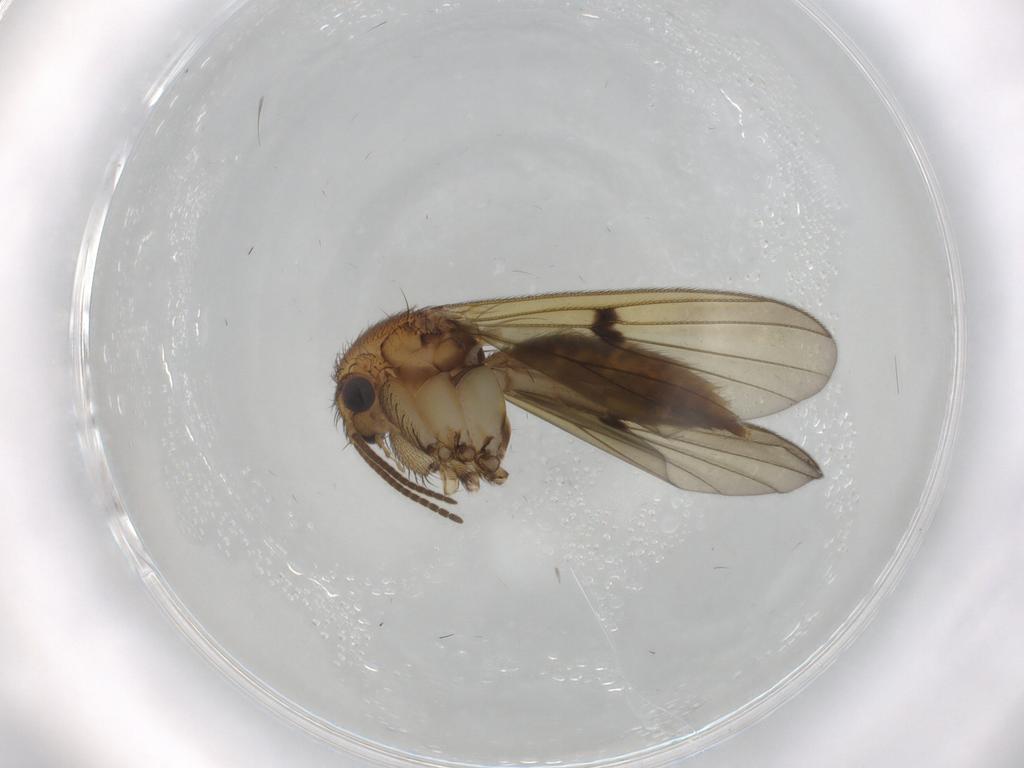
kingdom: Animalia
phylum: Arthropoda
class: Insecta
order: Diptera
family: Mycetophilidae
